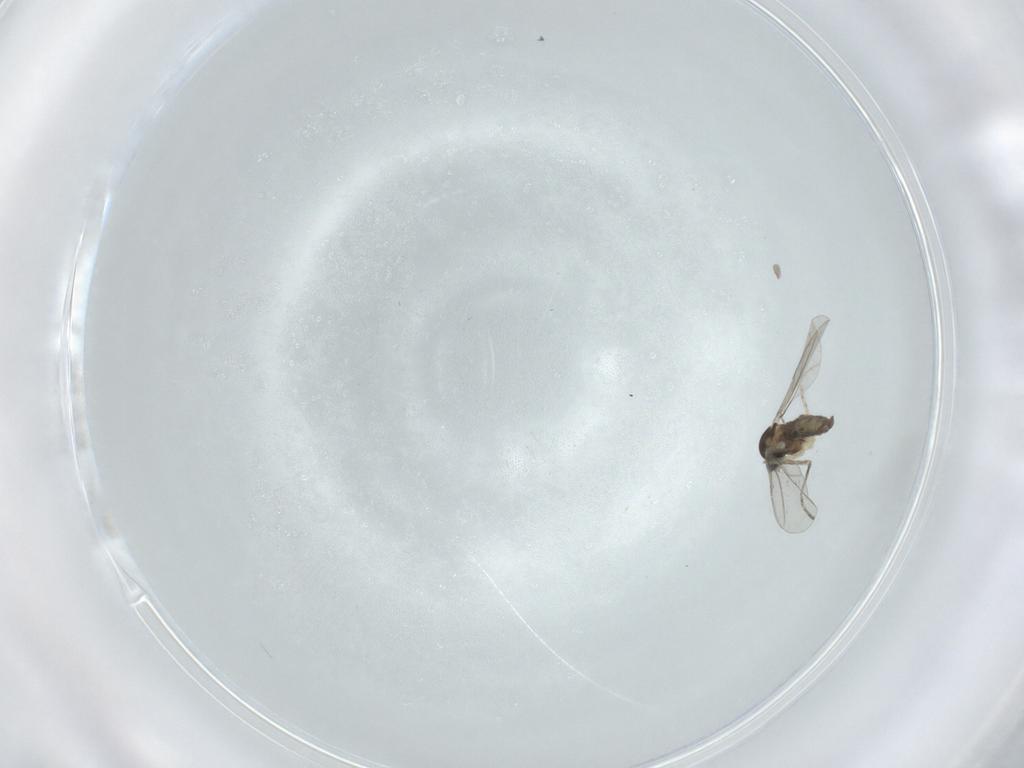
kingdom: Animalia
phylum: Arthropoda
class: Insecta
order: Diptera
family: Cecidomyiidae
